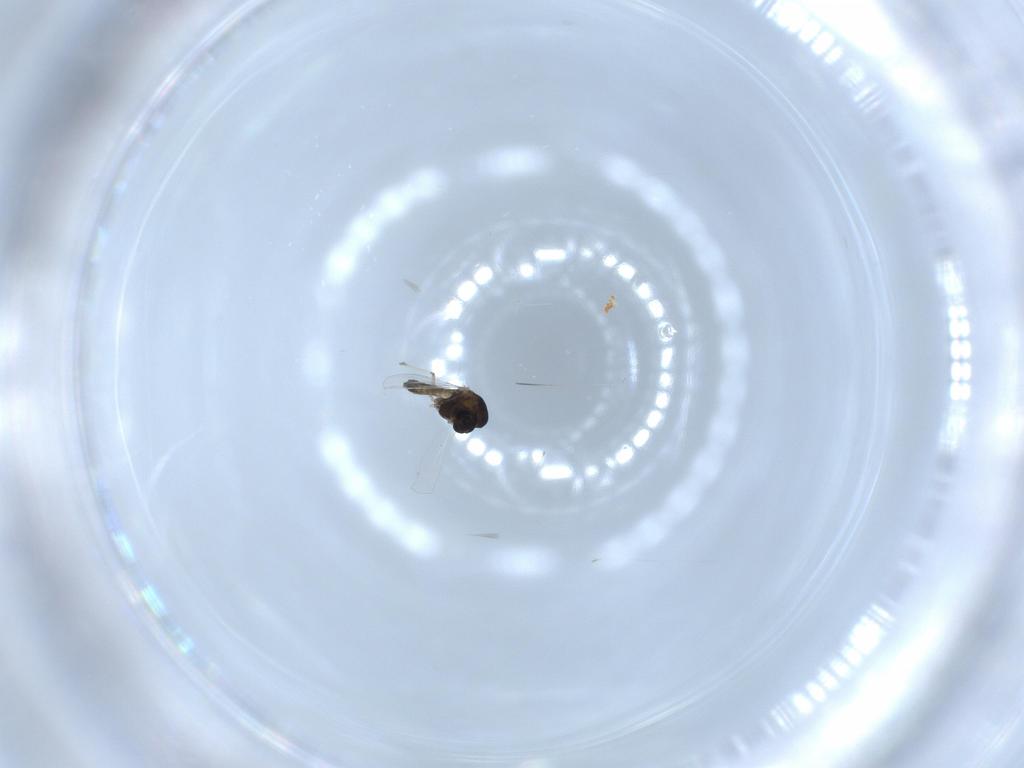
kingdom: Animalia
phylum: Arthropoda
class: Insecta
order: Diptera
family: Chironomidae
